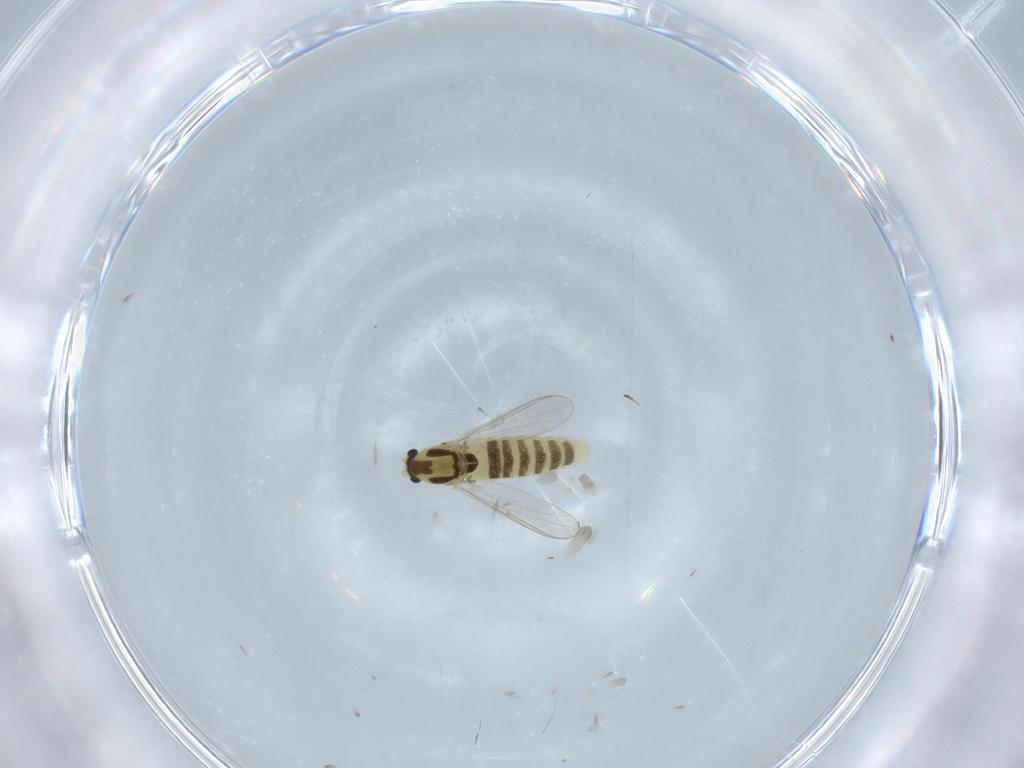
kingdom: Animalia
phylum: Arthropoda
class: Insecta
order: Diptera
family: Chironomidae
